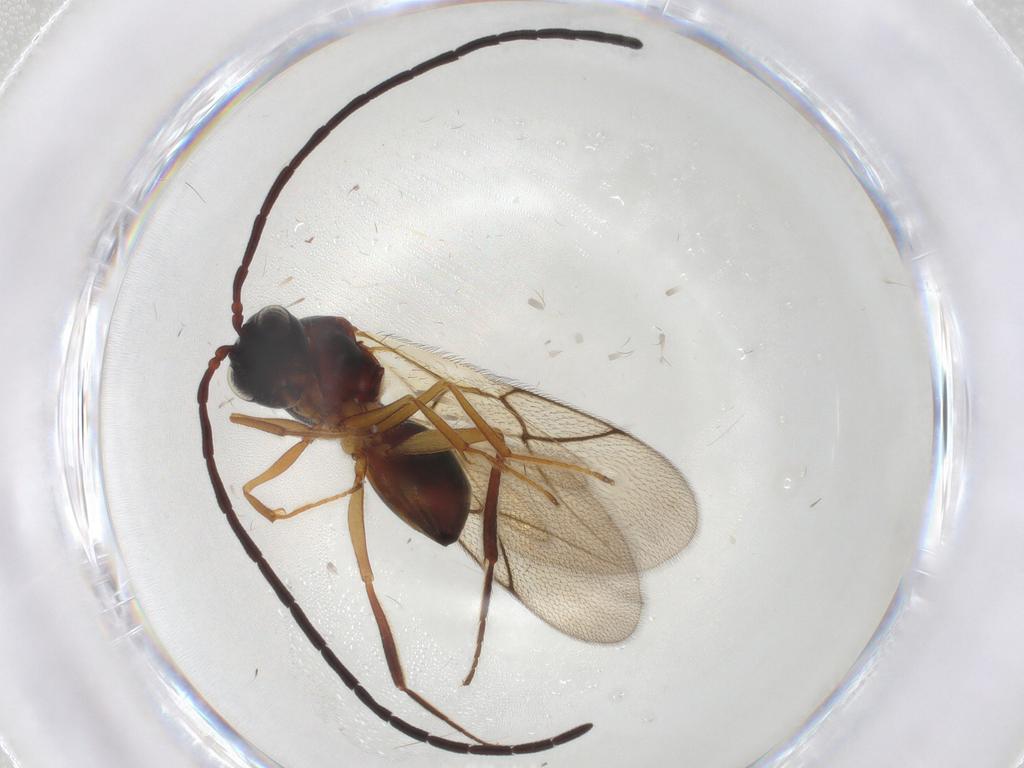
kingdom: Animalia
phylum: Arthropoda
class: Insecta
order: Hymenoptera
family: Figitidae
